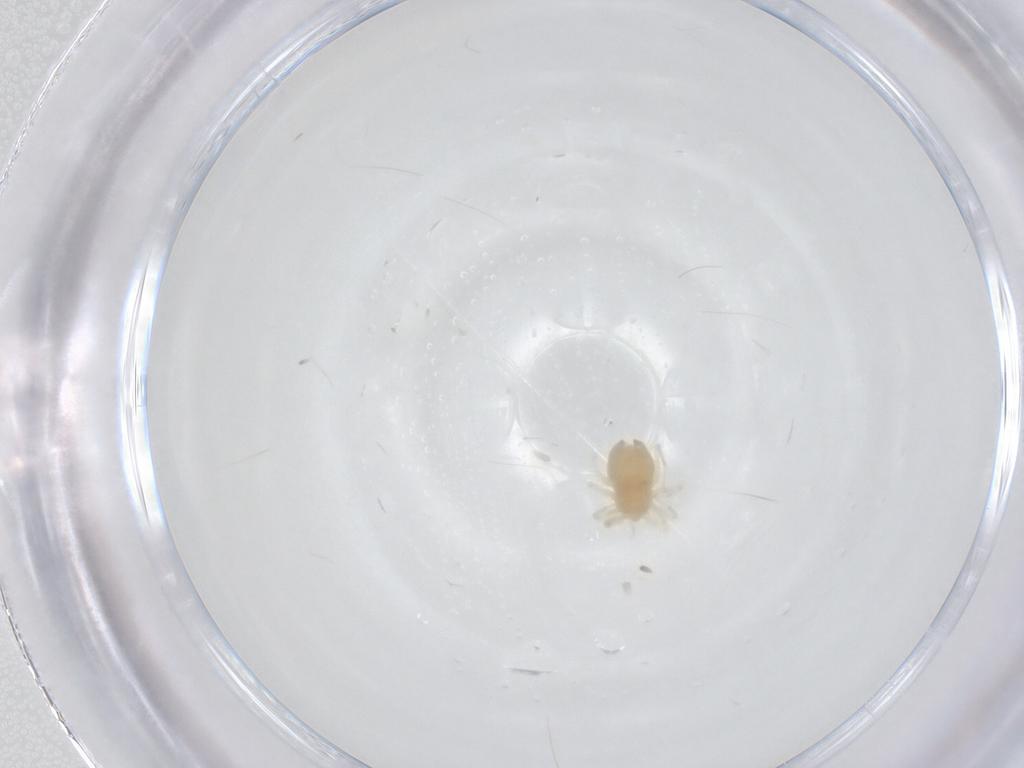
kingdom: Animalia
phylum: Arthropoda
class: Arachnida
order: Trombidiformes
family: Anystidae
